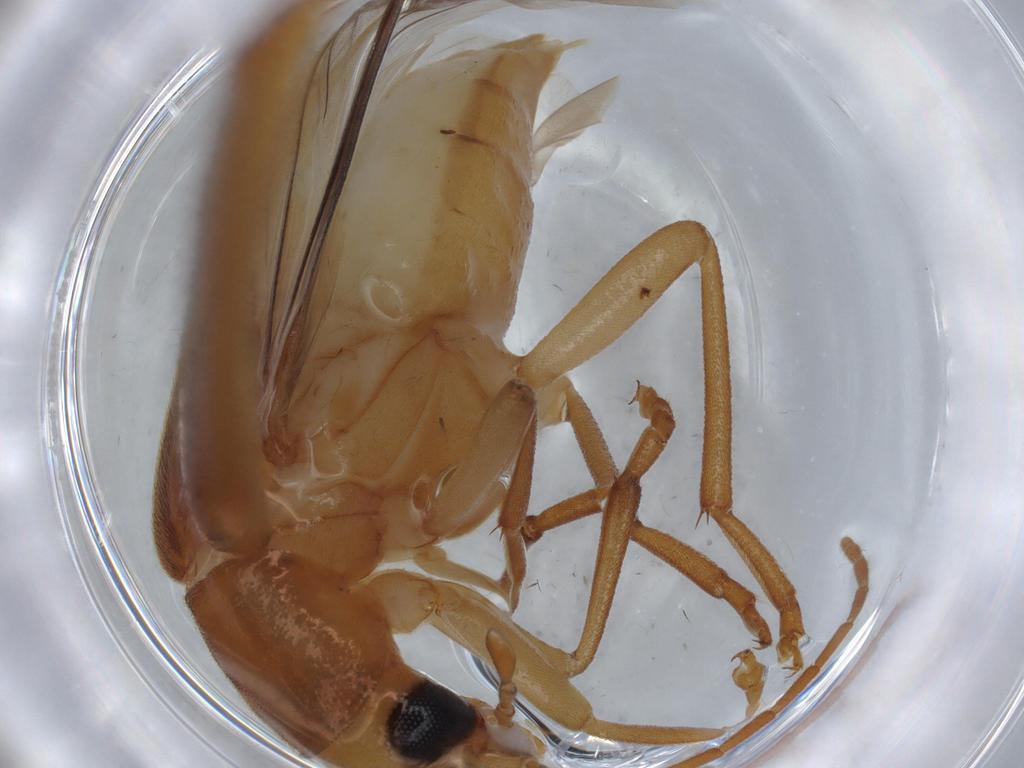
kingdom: Animalia
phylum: Arthropoda
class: Insecta
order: Coleoptera
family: Oedemeridae
